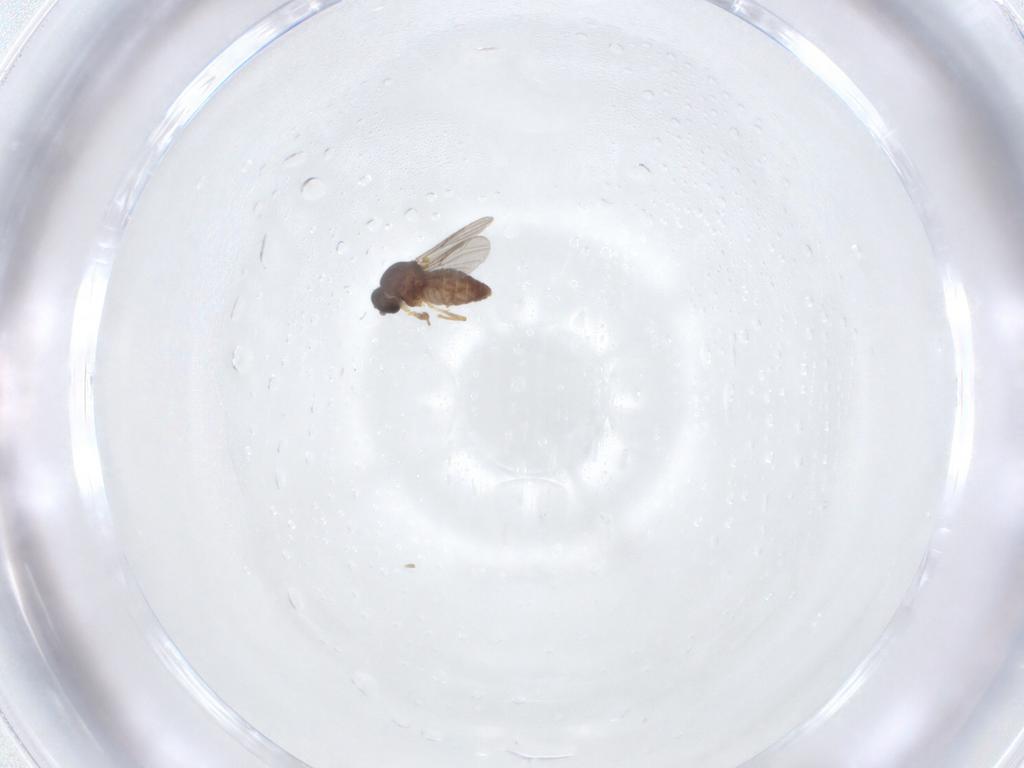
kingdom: Animalia
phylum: Arthropoda
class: Insecta
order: Diptera
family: Ceratopogonidae
